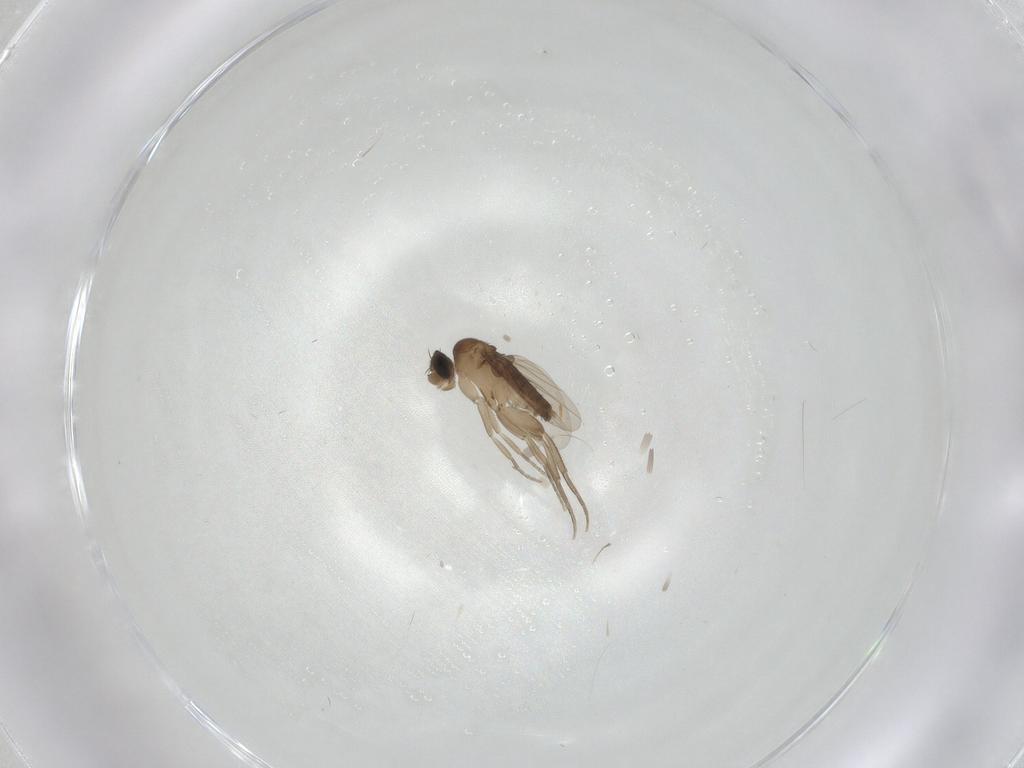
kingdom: Animalia
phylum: Arthropoda
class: Insecta
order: Diptera
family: Phoridae
